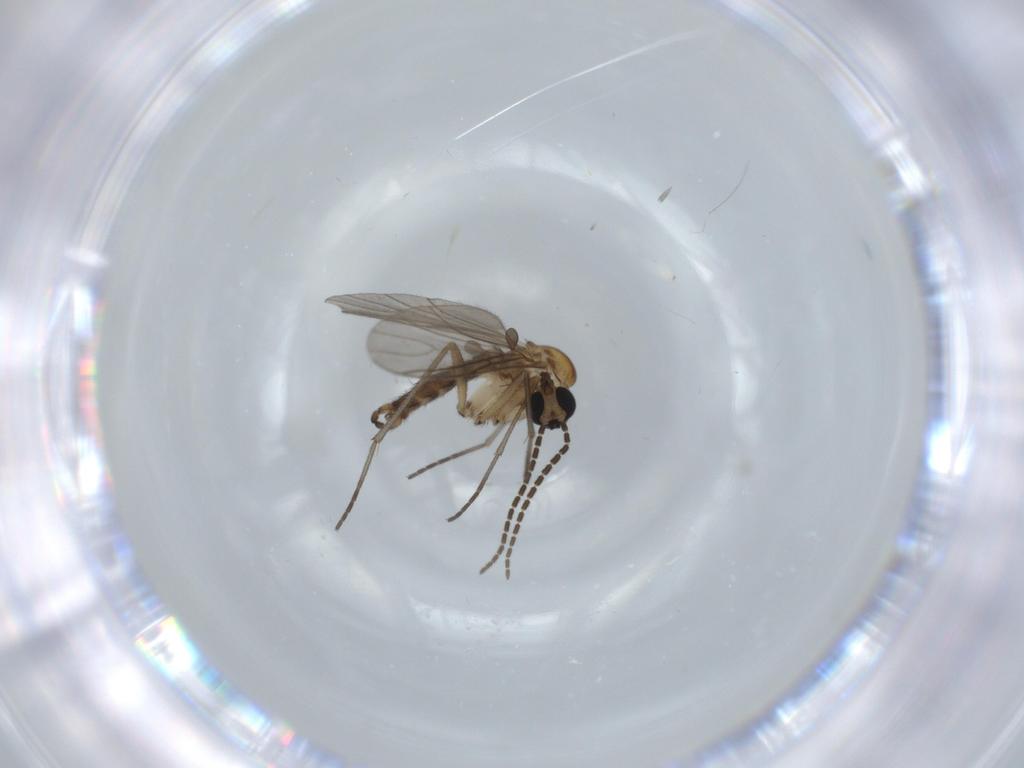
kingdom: Animalia
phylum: Arthropoda
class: Insecta
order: Diptera
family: Sciaridae
